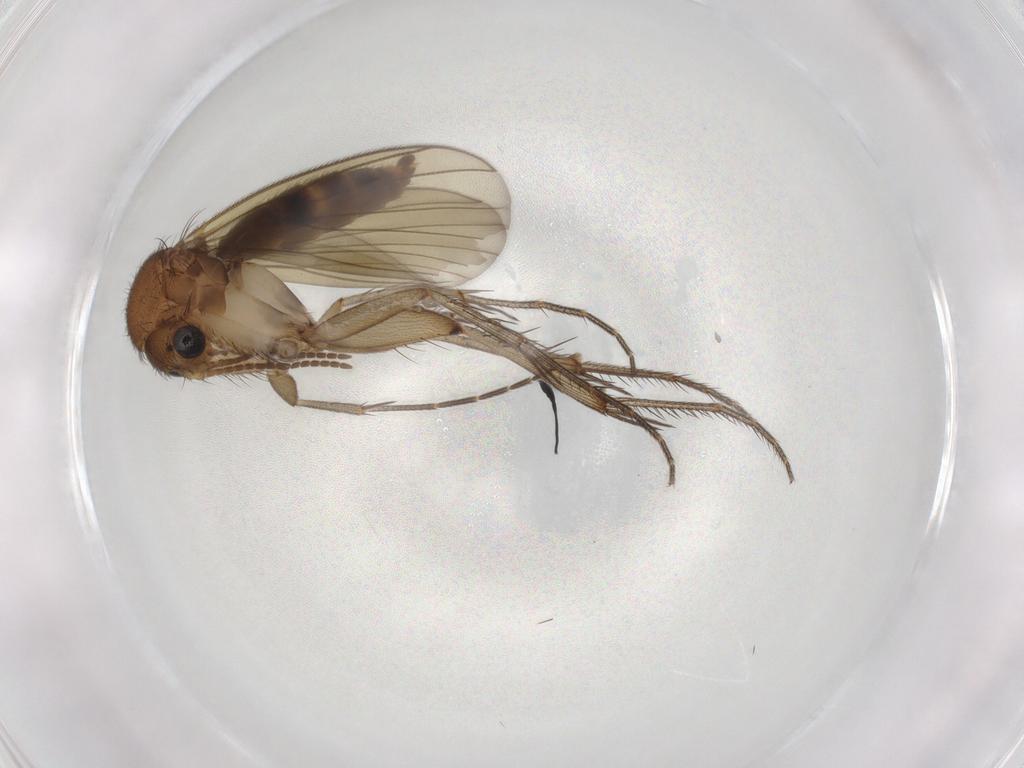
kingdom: Animalia
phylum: Arthropoda
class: Insecta
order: Diptera
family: Mycetophilidae
